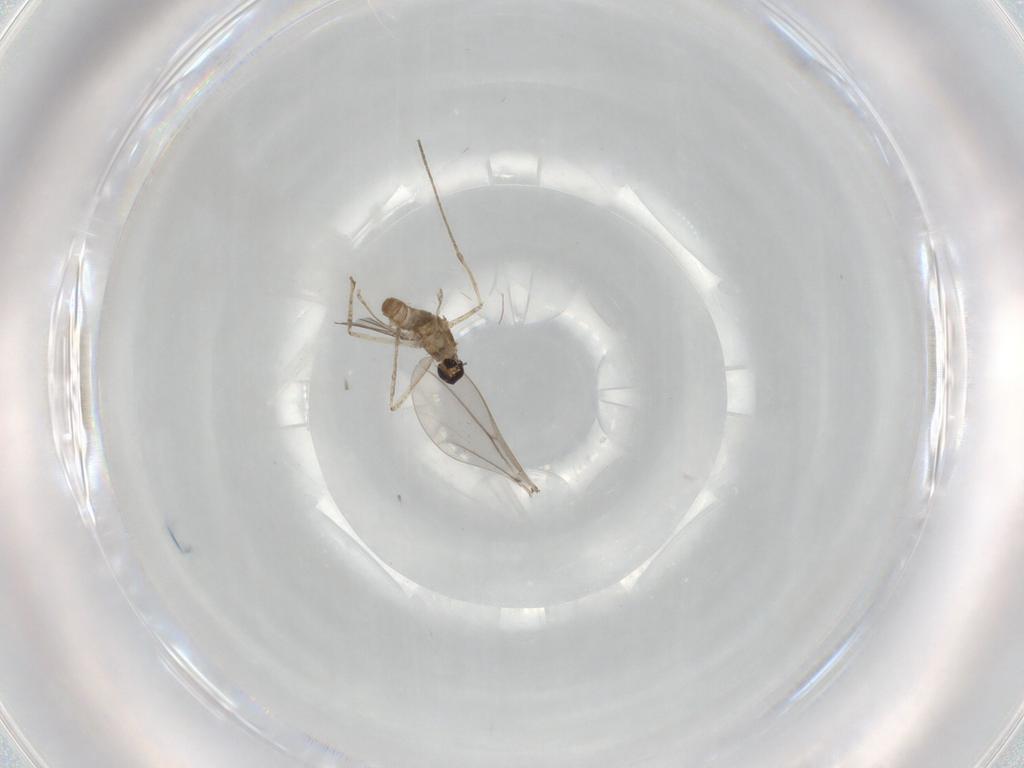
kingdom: Animalia
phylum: Arthropoda
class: Insecta
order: Diptera
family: Cecidomyiidae
